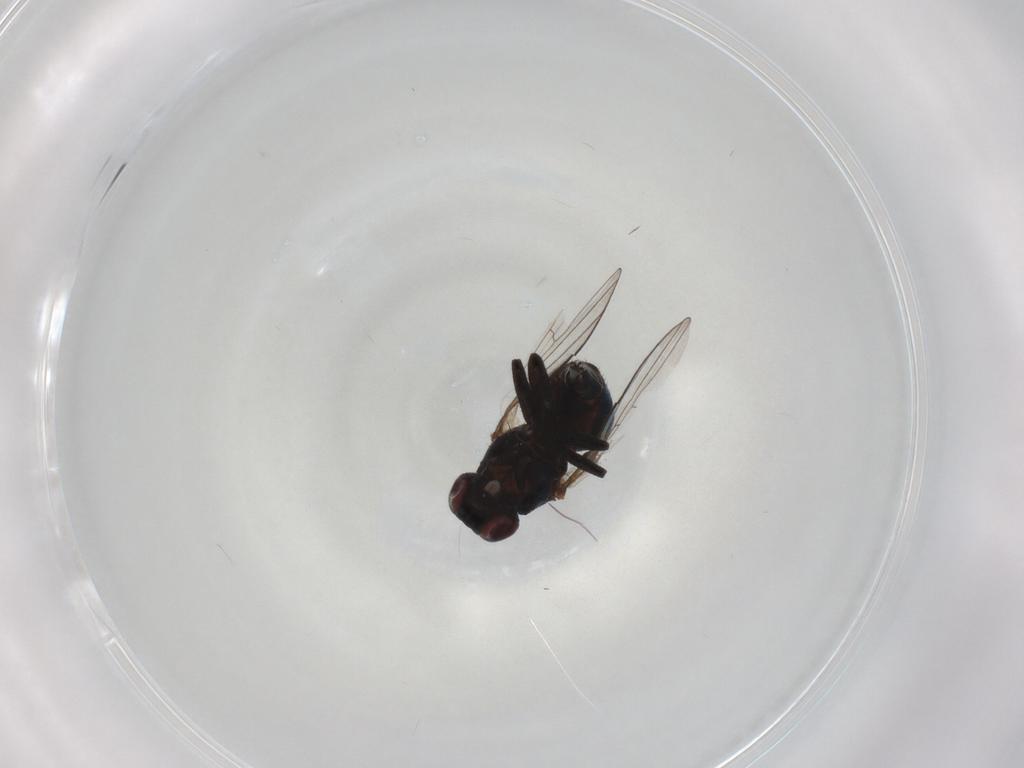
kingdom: Animalia
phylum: Arthropoda
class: Insecta
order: Diptera
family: Agromyzidae
